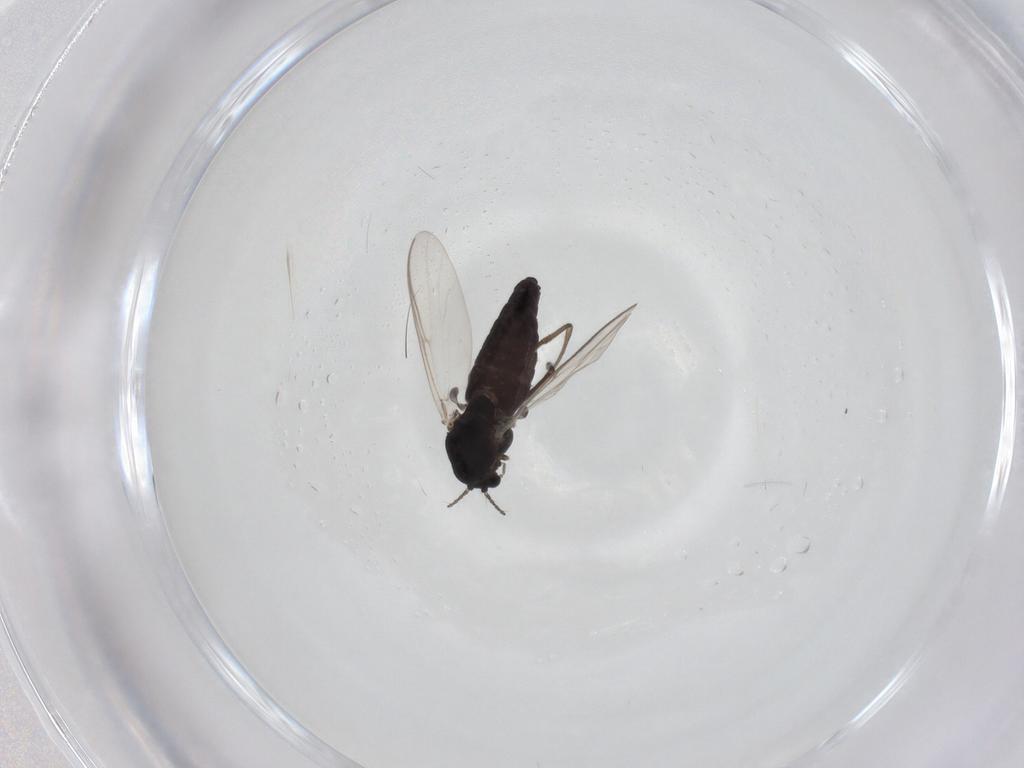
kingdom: Animalia
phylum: Arthropoda
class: Insecta
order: Diptera
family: Chironomidae
